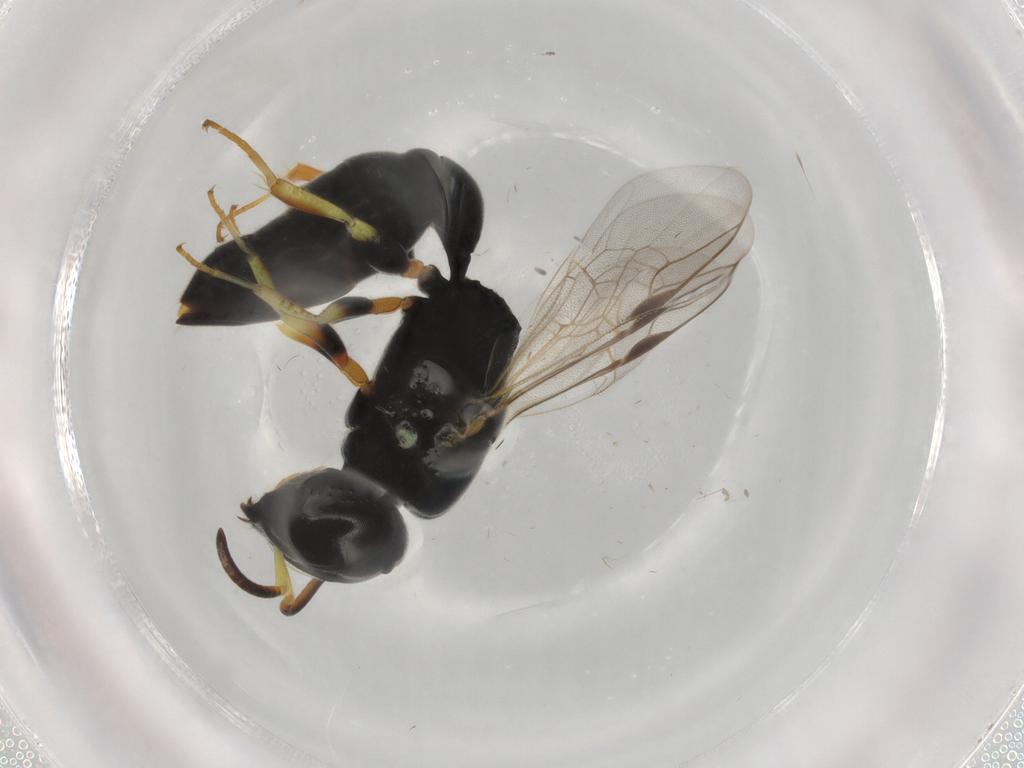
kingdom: Animalia
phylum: Arthropoda
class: Insecta
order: Hymenoptera
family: Pemphredonidae
